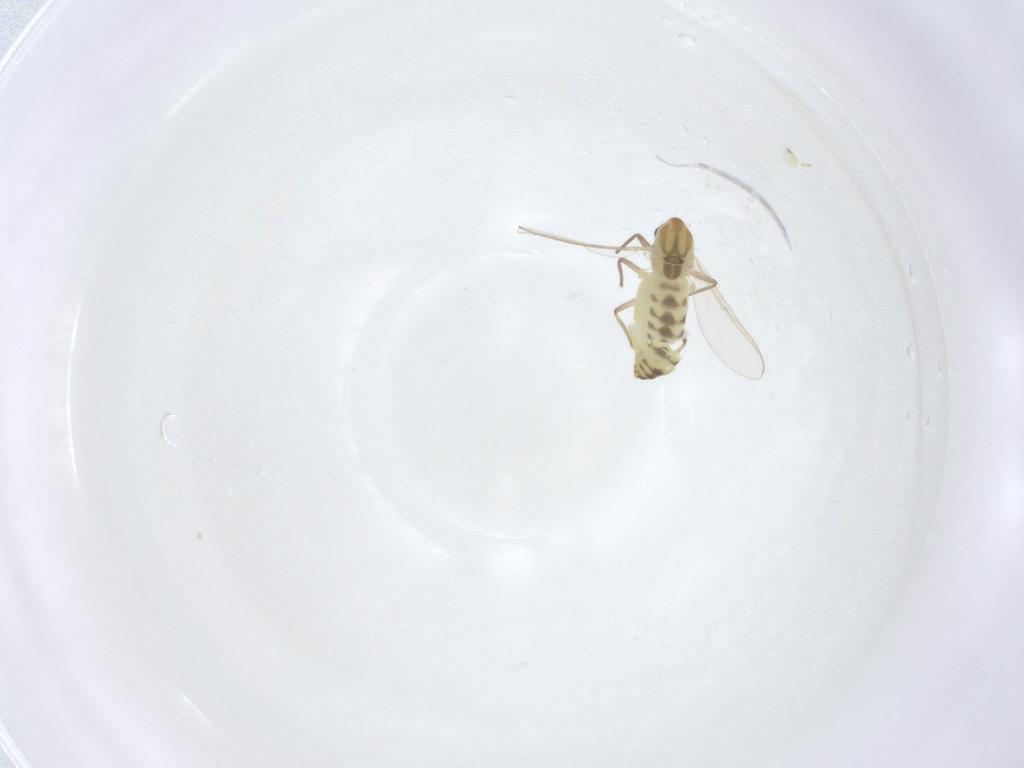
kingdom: Animalia
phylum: Arthropoda
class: Insecta
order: Diptera
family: Chironomidae
